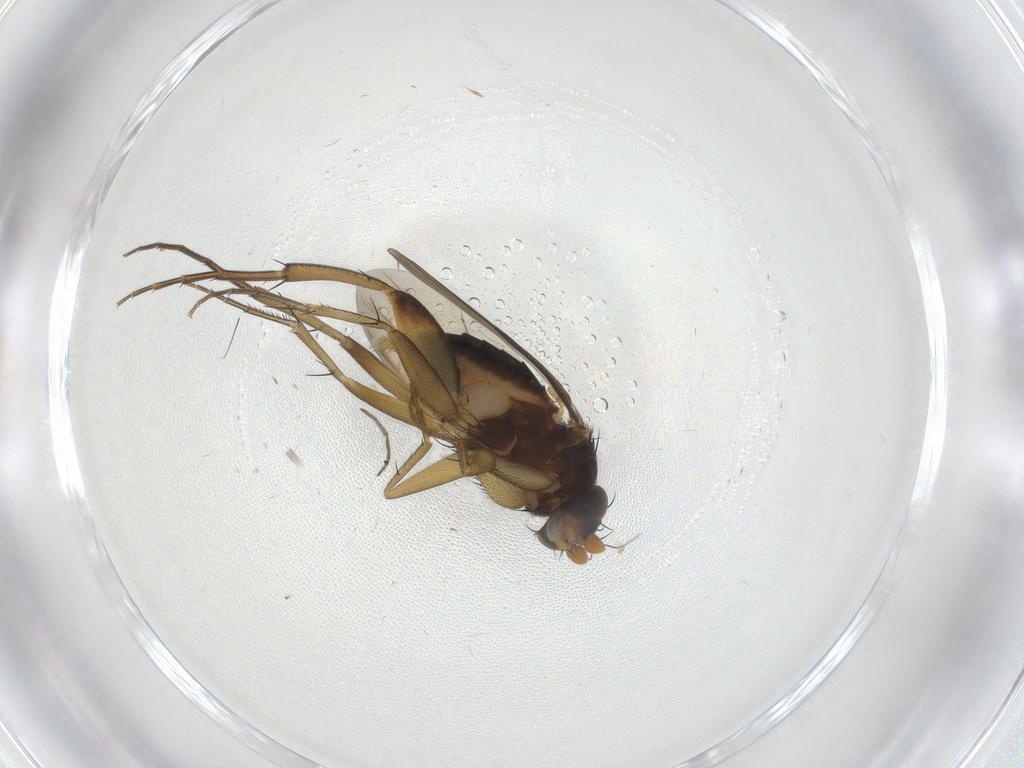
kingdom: Animalia
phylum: Arthropoda
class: Insecta
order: Diptera
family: Phoridae
